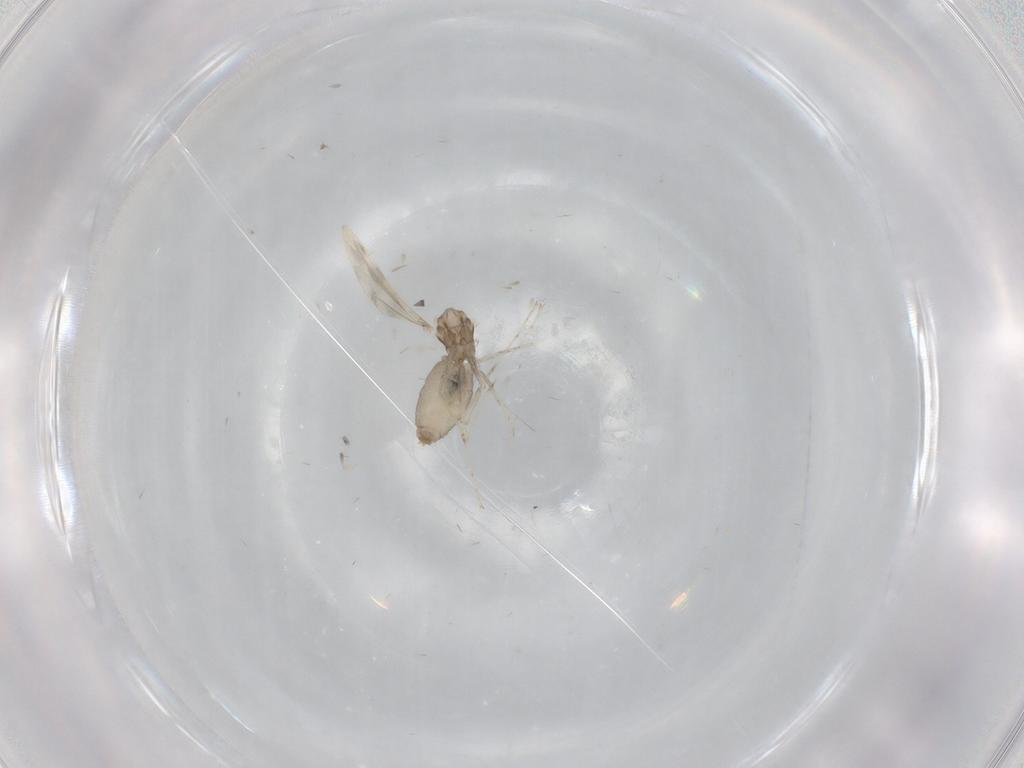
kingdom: Animalia
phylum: Arthropoda
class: Insecta
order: Diptera
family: Cecidomyiidae
